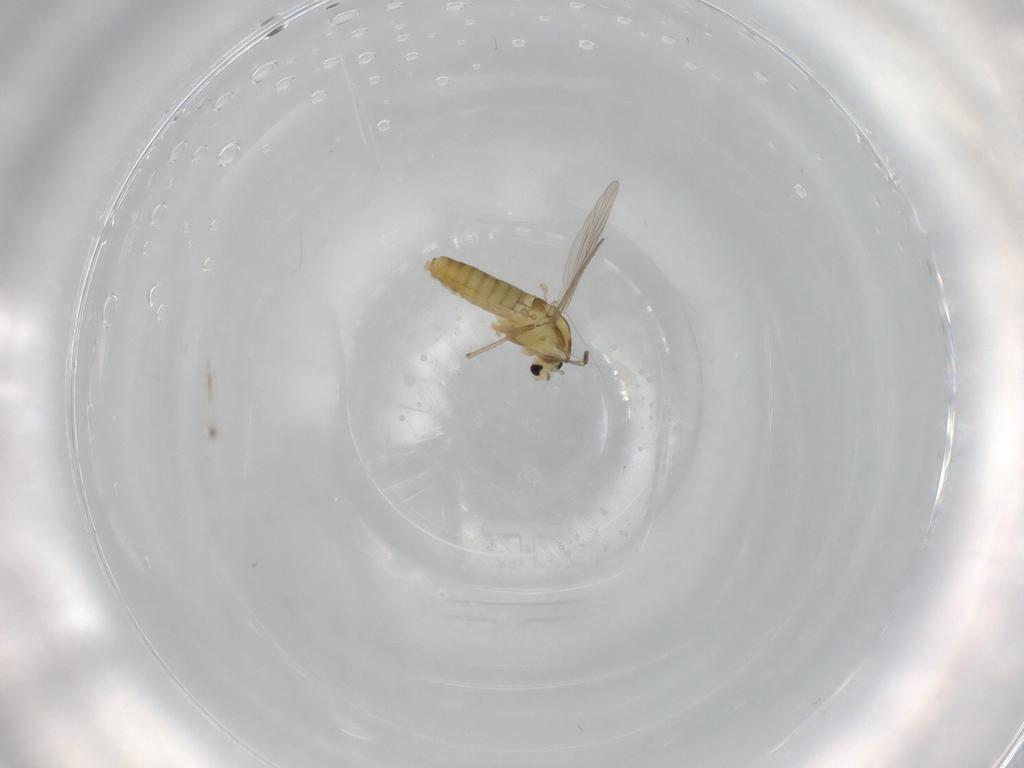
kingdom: Animalia
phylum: Arthropoda
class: Insecta
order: Diptera
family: Chironomidae
